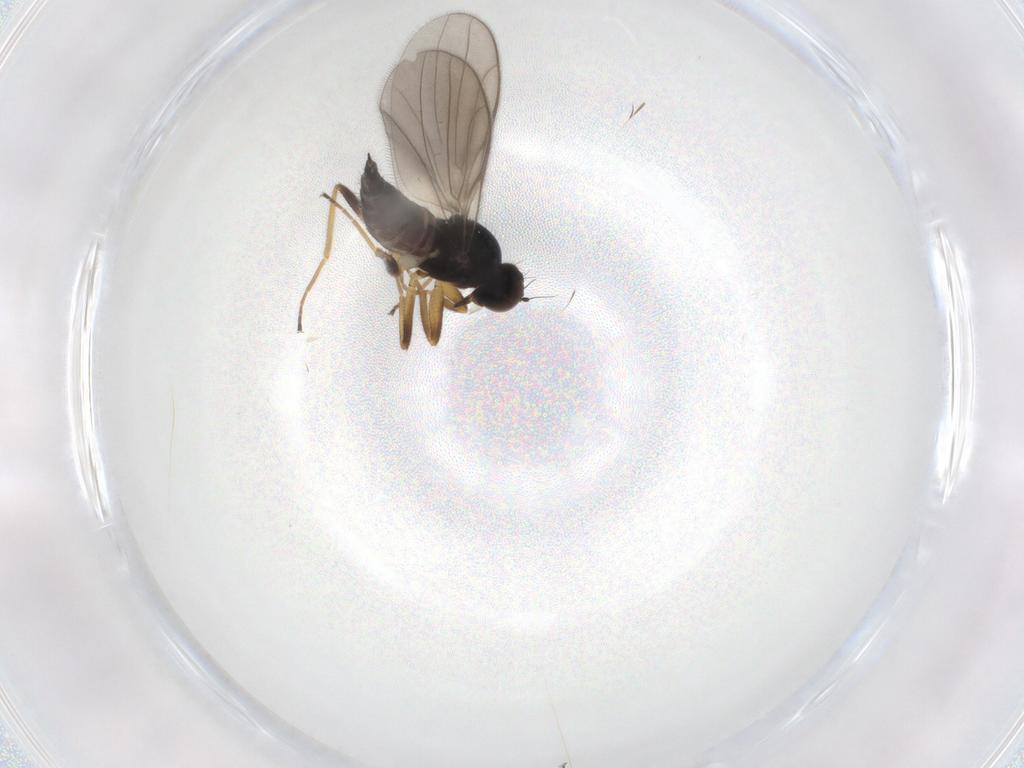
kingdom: Animalia
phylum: Arthropoda
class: Insecta
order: Diptera
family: Hybotidae
